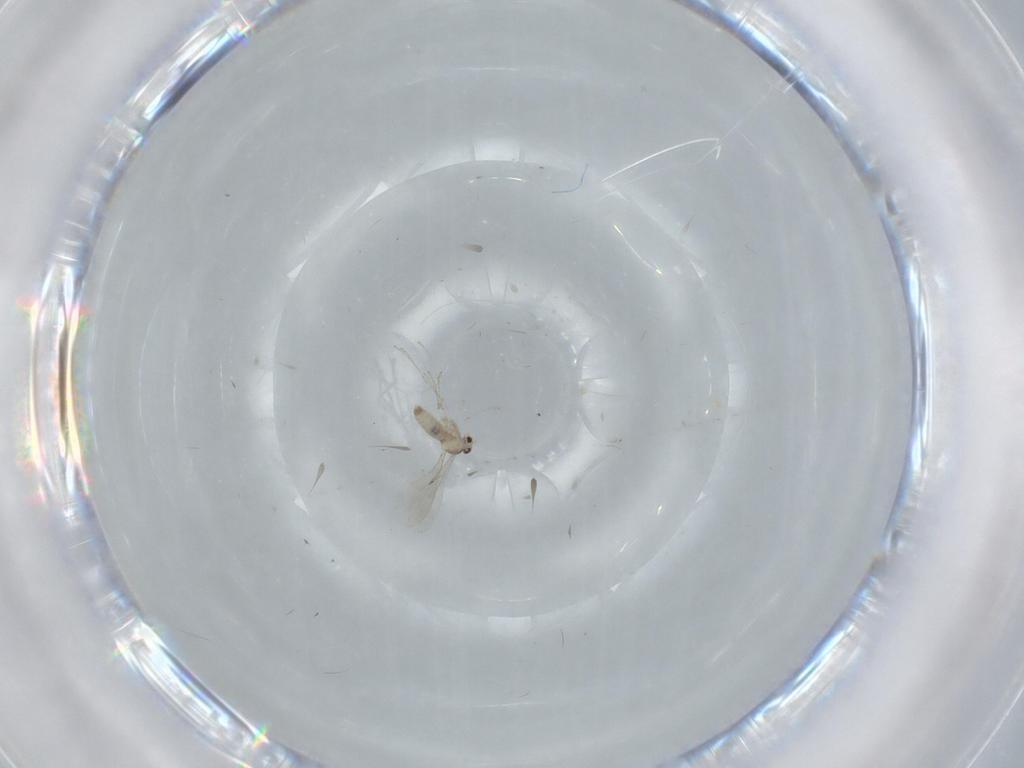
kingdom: Animalia
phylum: Arthropoda
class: Insecta
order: Diptera
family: Cecidomyiidae
